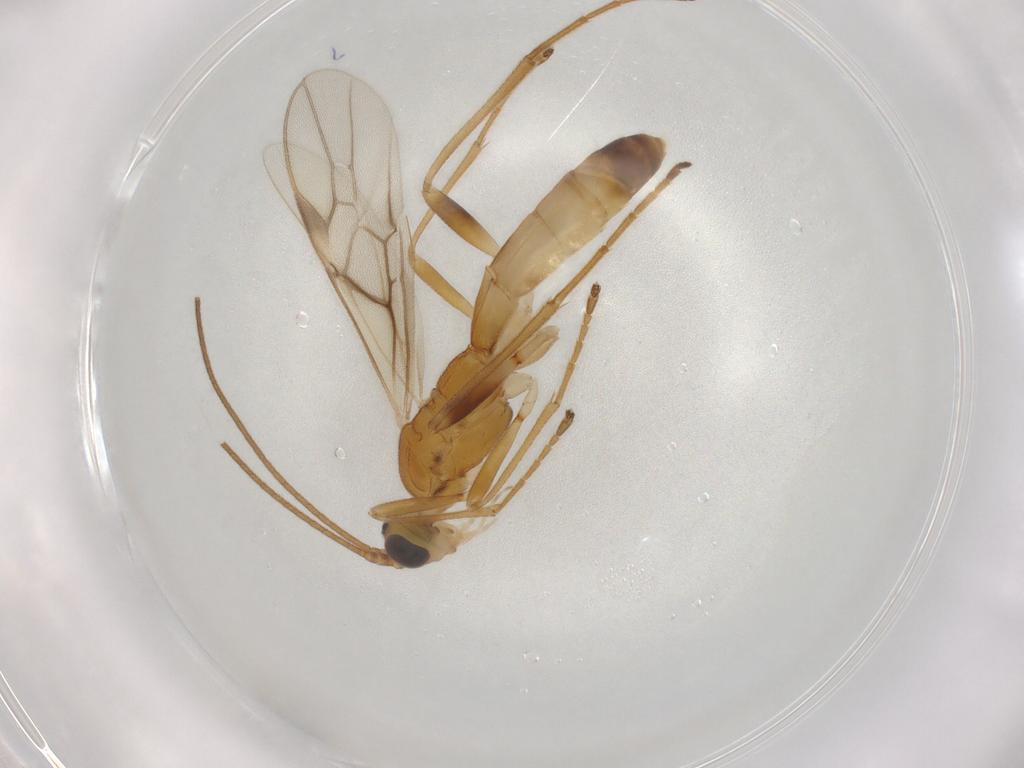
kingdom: Animalia
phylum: Arthropoda
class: Insecta
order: Hymenoptera
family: Braconidae
